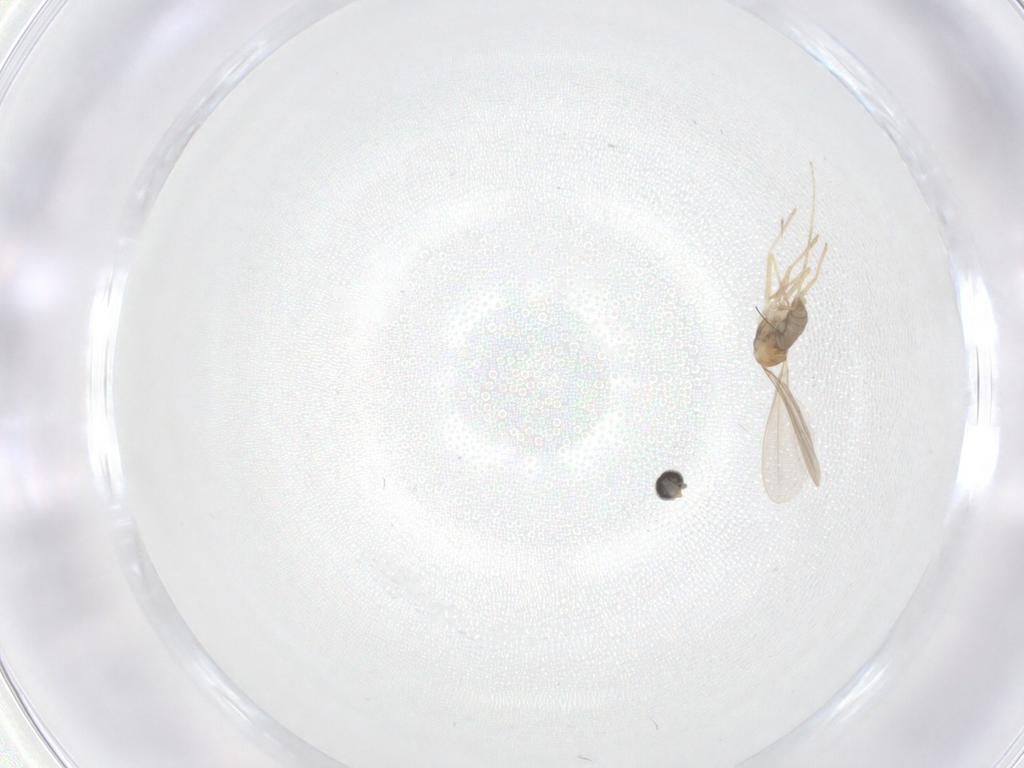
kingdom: Animalia
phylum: Arthropoda
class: Insecta
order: Diptera
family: Cecidomyiidae
